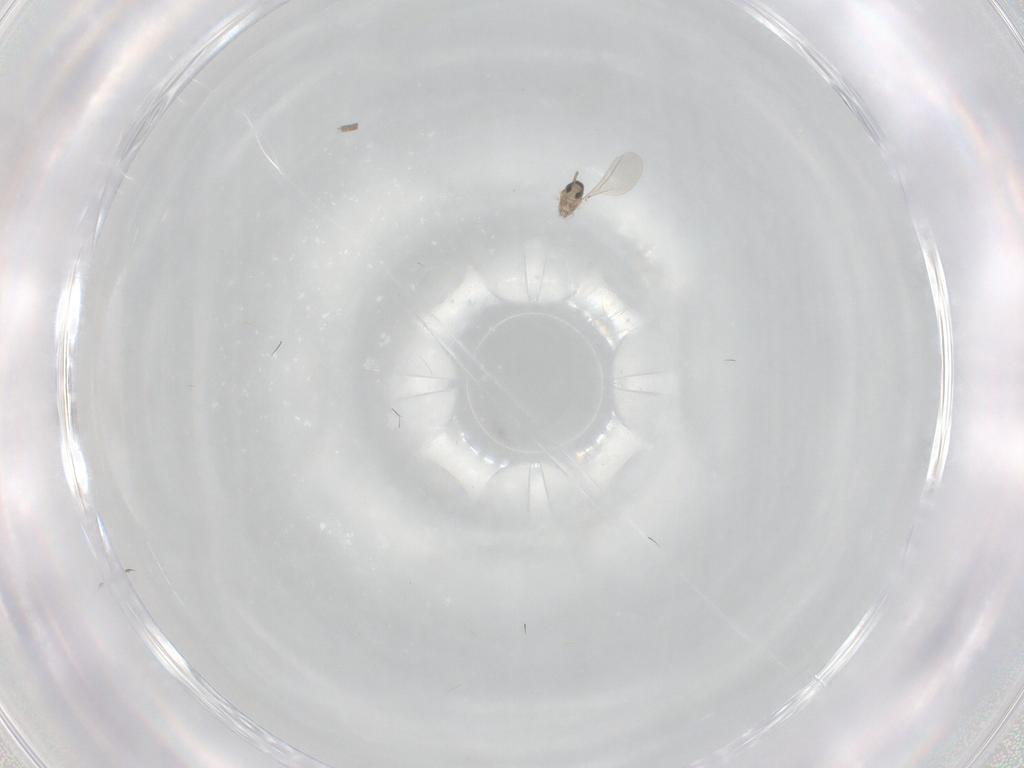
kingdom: Animalia
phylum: Arthropoda
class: Insecta
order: Diptera
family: Cecidomyiidae
